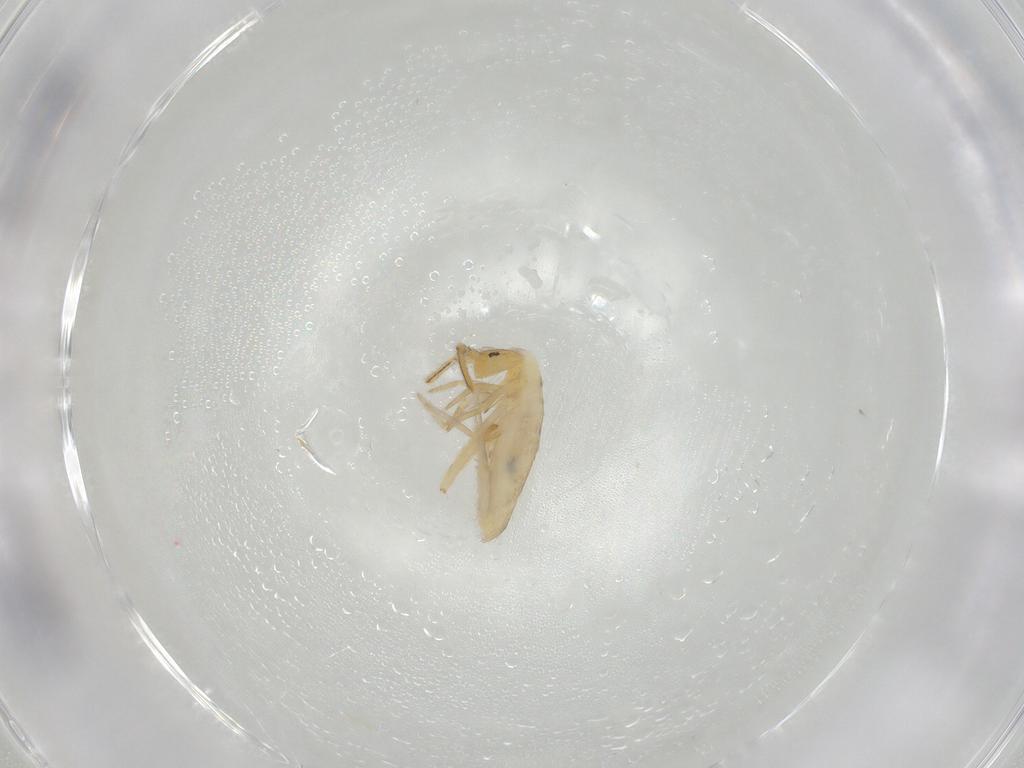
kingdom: Animalia
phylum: Arthropoda
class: Collembola
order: Entomobryomorpha
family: Entomobryidae
